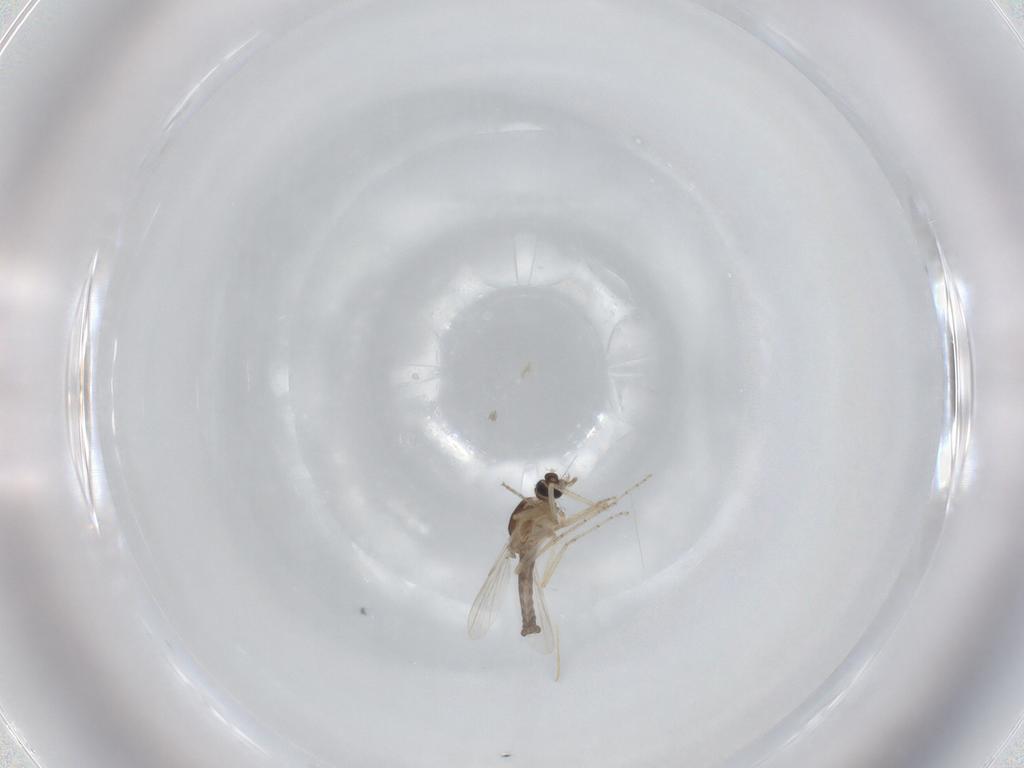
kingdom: Animalia
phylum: Arthropoda
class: Insecta
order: Diptera
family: Ceratopogonidae
